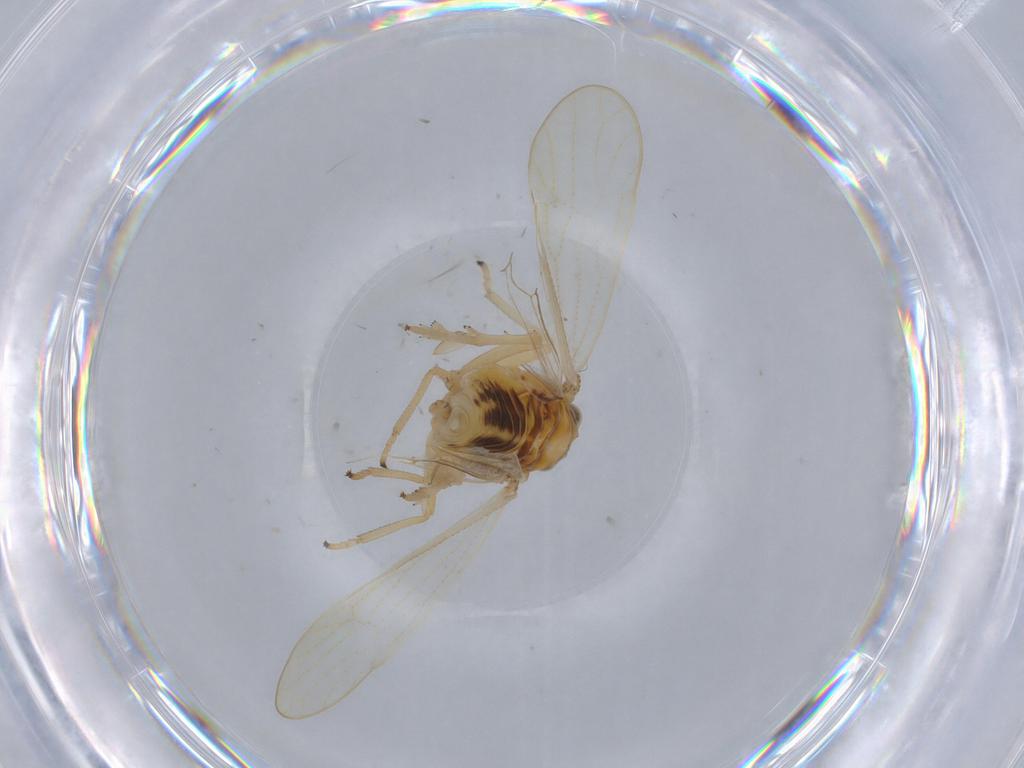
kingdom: Animalia
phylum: Arthropoda
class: Insecta
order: Hemiptera
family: Delphacidae
